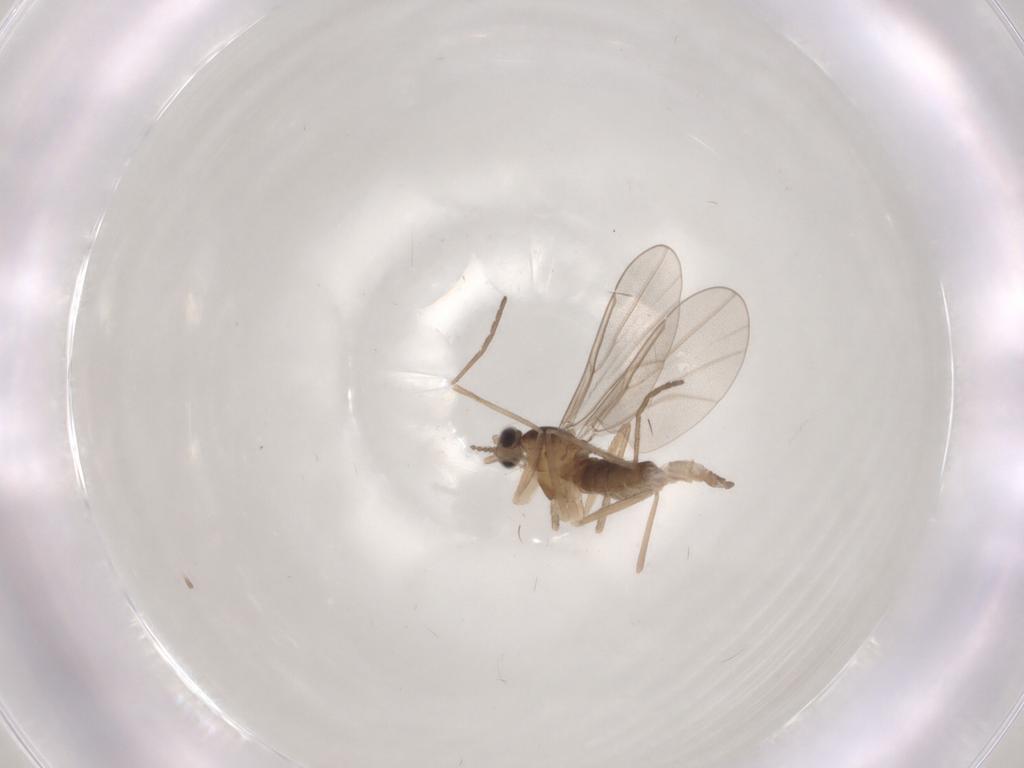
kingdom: Animalia
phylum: Arthropoda
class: Insecta
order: Diptera
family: Cecidomyiidae
